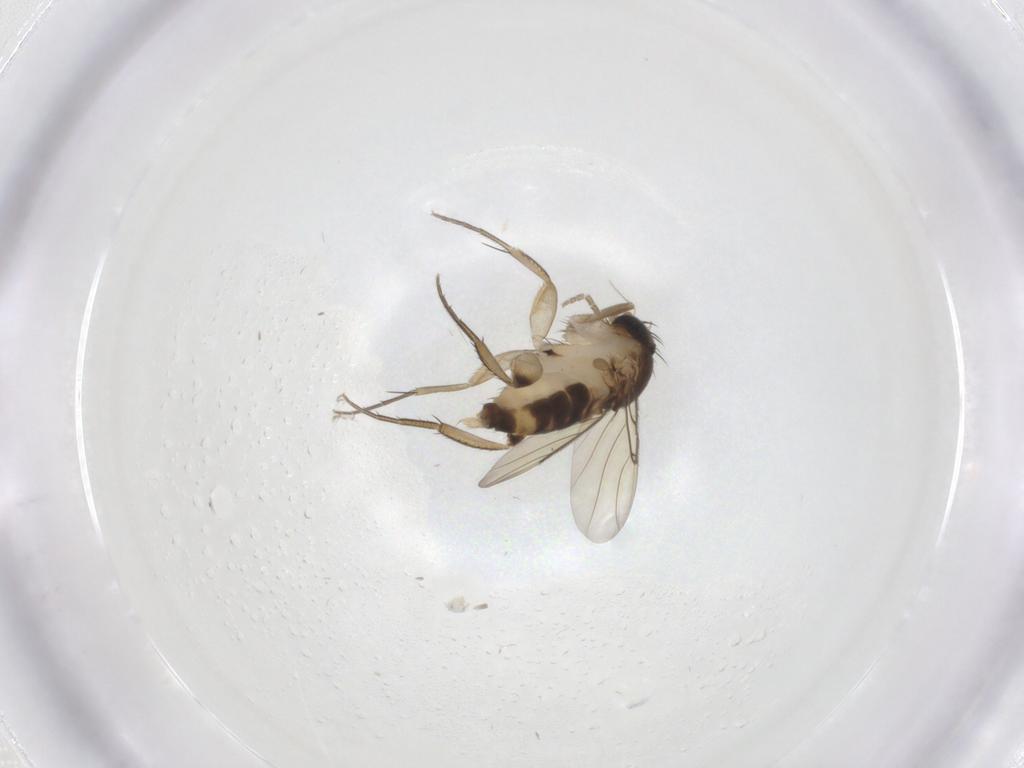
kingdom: Animalia
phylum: Arthropoda
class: Insecta
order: Diptera
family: Phoridae
